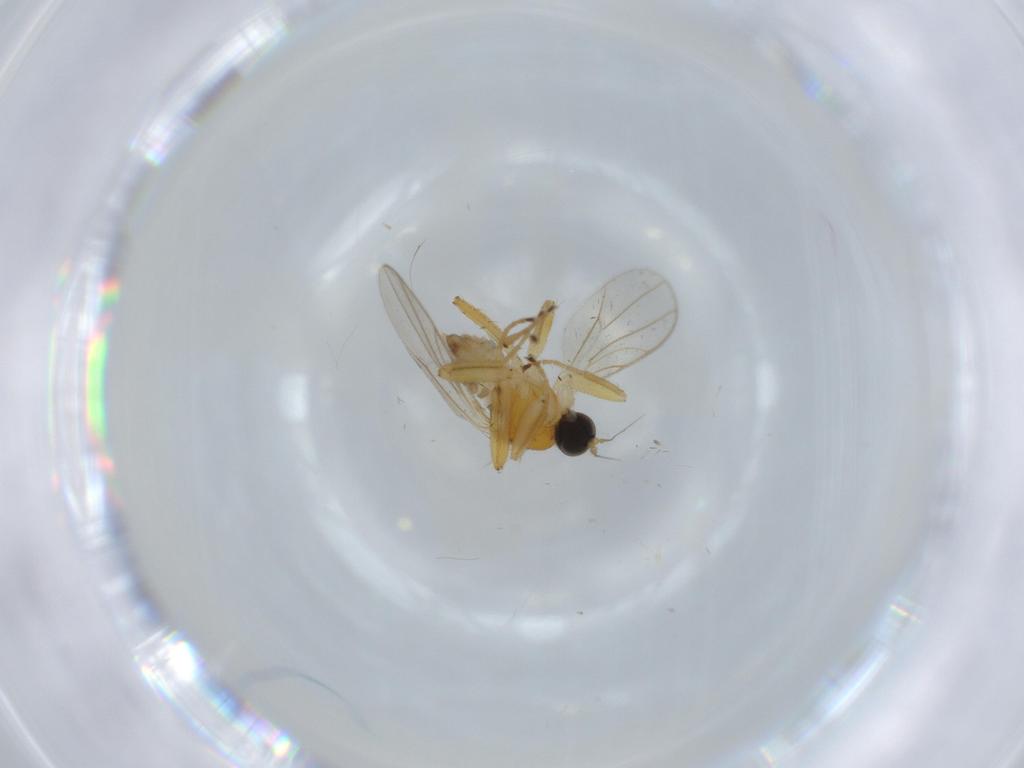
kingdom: Animalia
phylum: Arthropoda
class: Insecta
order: Diptera
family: Hybotidae
